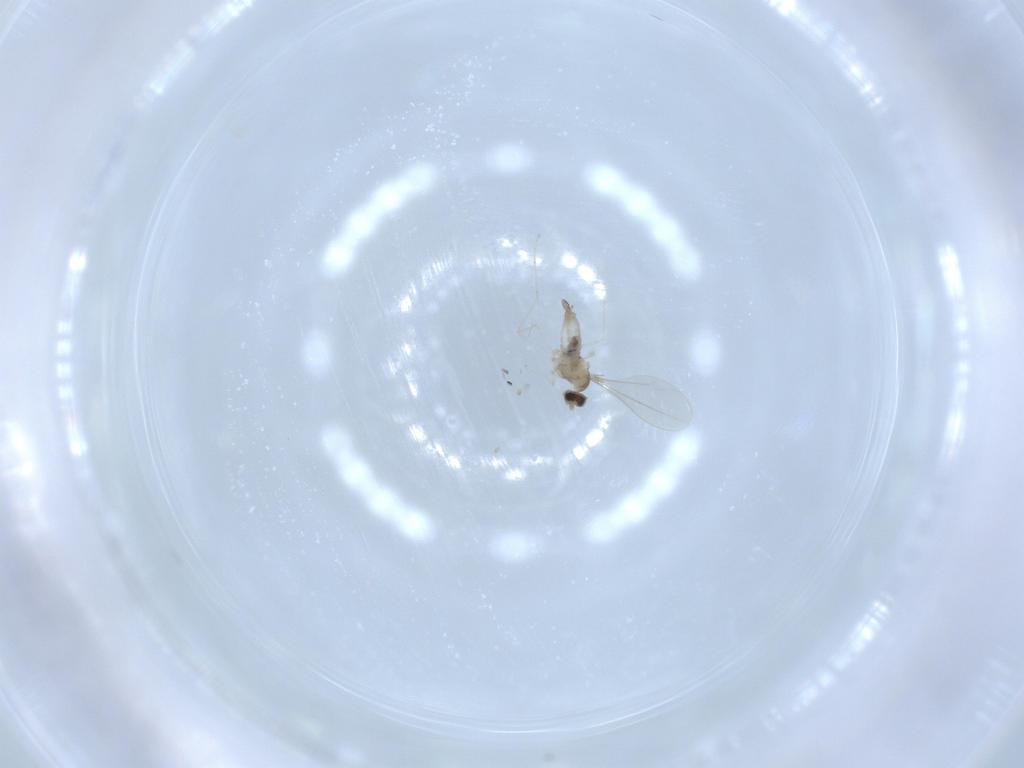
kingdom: Animalia
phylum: Arthropoda
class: Insecta
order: Diptera
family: Cecidomyiidae
